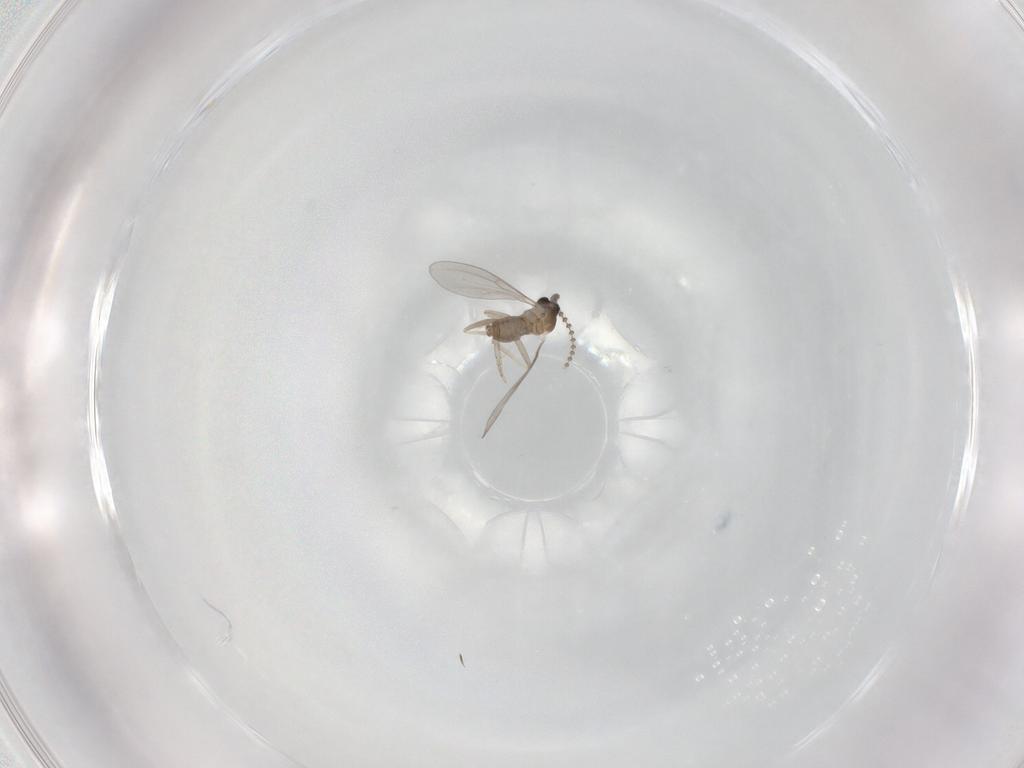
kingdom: Animalia
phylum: Arthropoda
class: Insecta
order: Diptera
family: Cecidomyiidae
